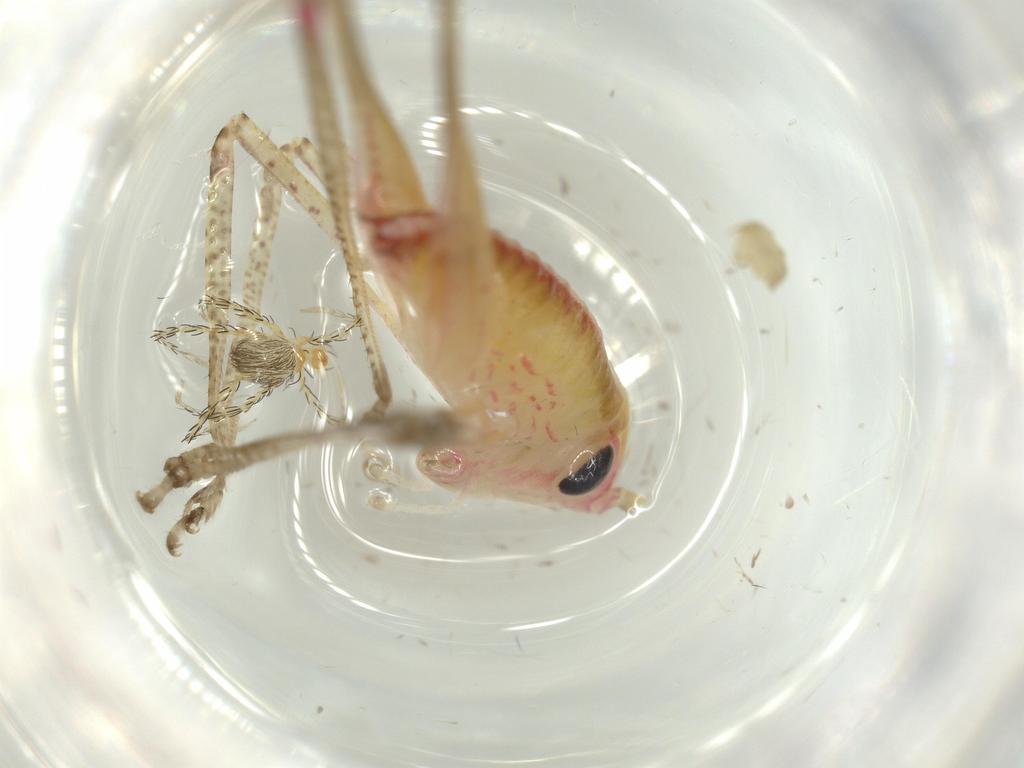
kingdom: Animalia
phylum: Arthropoda
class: Insecta
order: Orthoptera
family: Tettigoniidae
